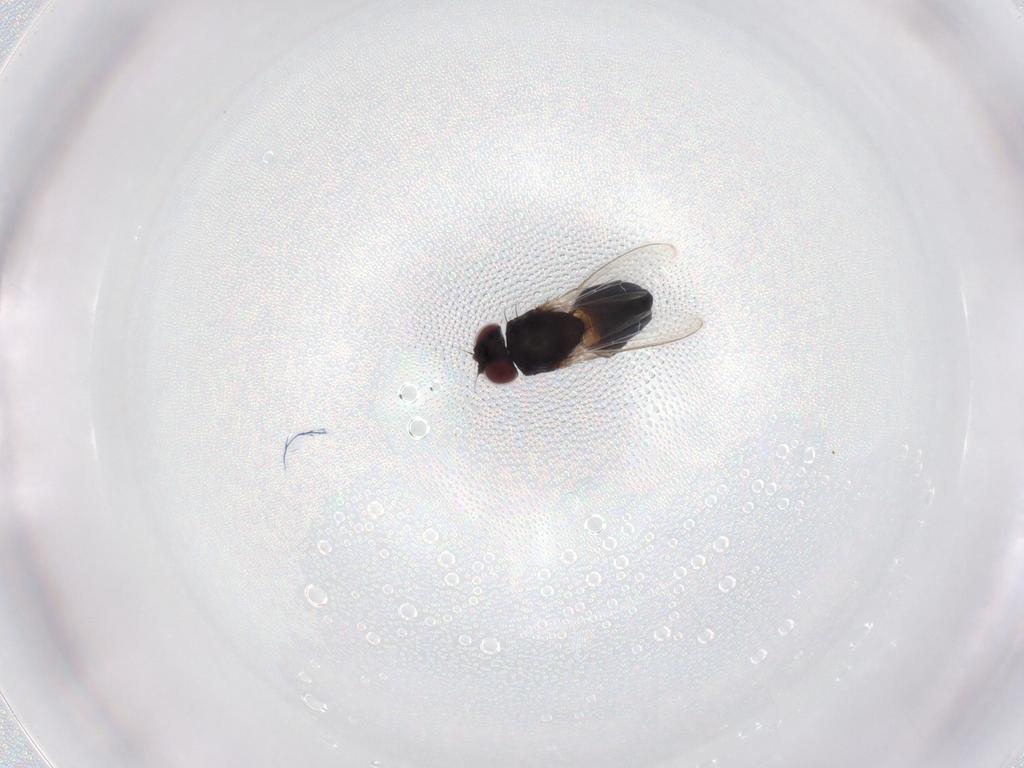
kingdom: Animalia
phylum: Arthropoda
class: Insecta
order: Diptera
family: Carnidae
